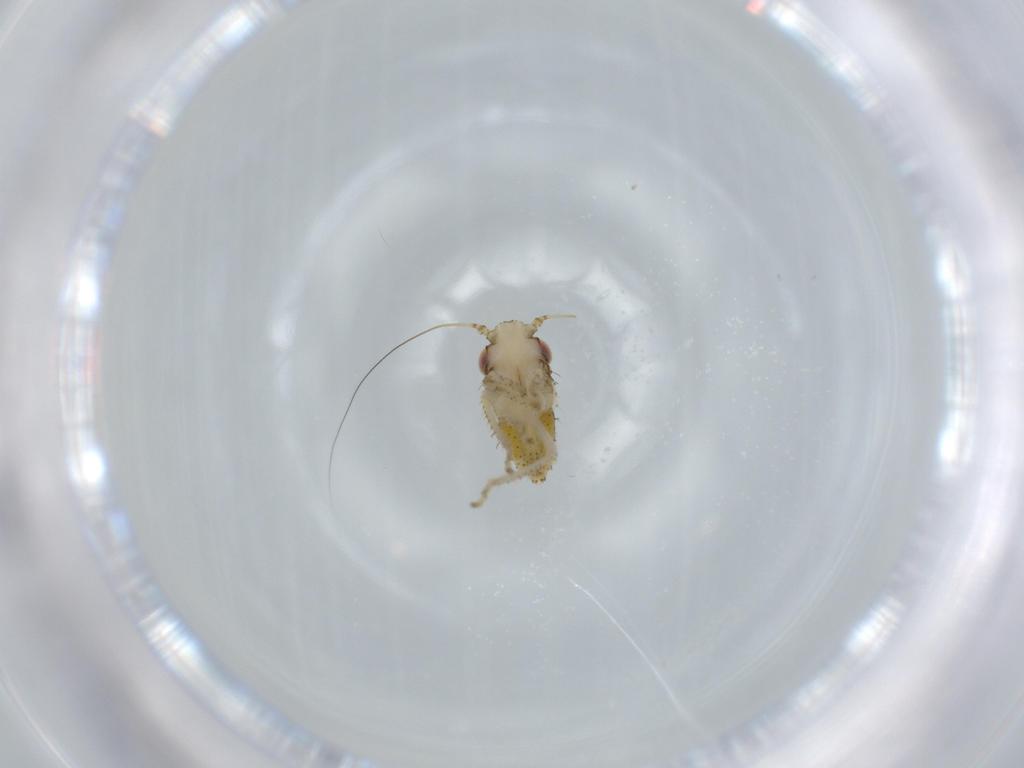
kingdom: Animalia
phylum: Arthropoda
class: Insecta
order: Hemiptera
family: Cicadellidae
